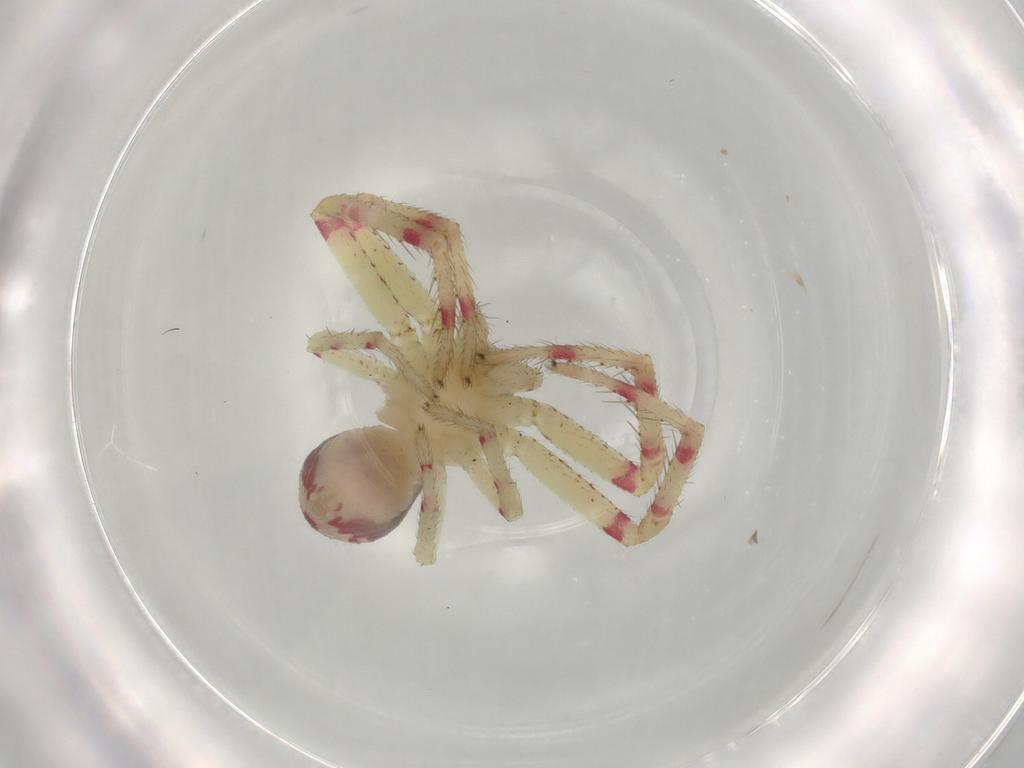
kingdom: Animalia
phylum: Arthropoda
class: Arachnida
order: Araneae
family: Thomisidae
